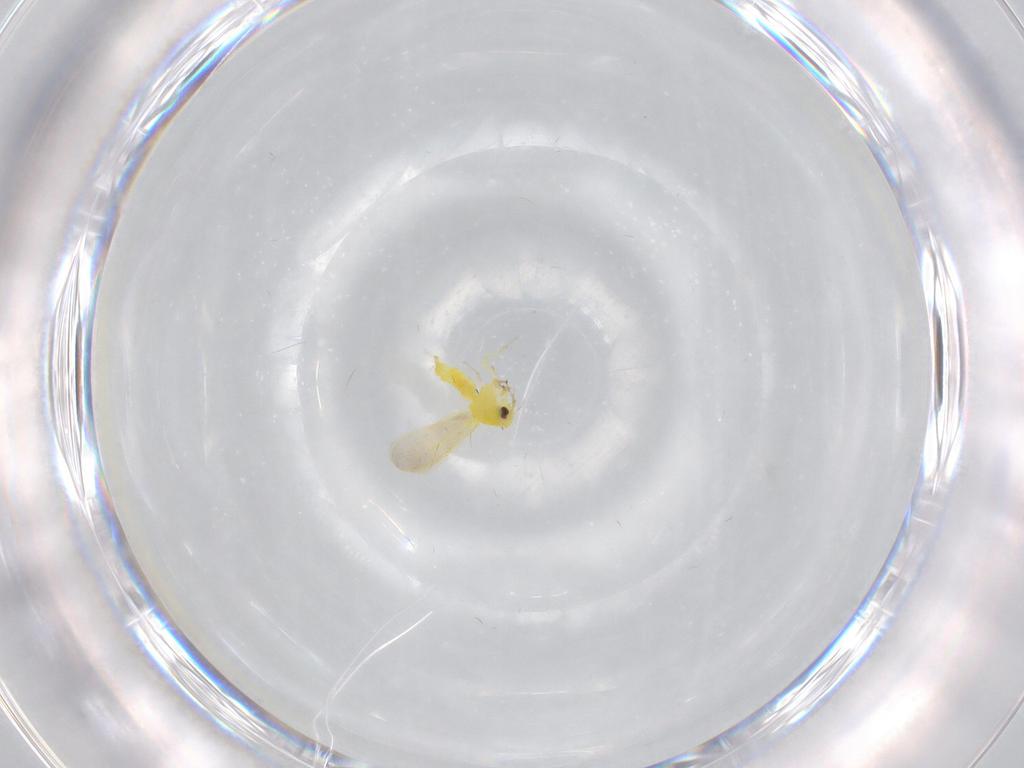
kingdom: Animalia
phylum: Arthropoda
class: Insecta
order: Hemiptera
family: Aleyrodidae
